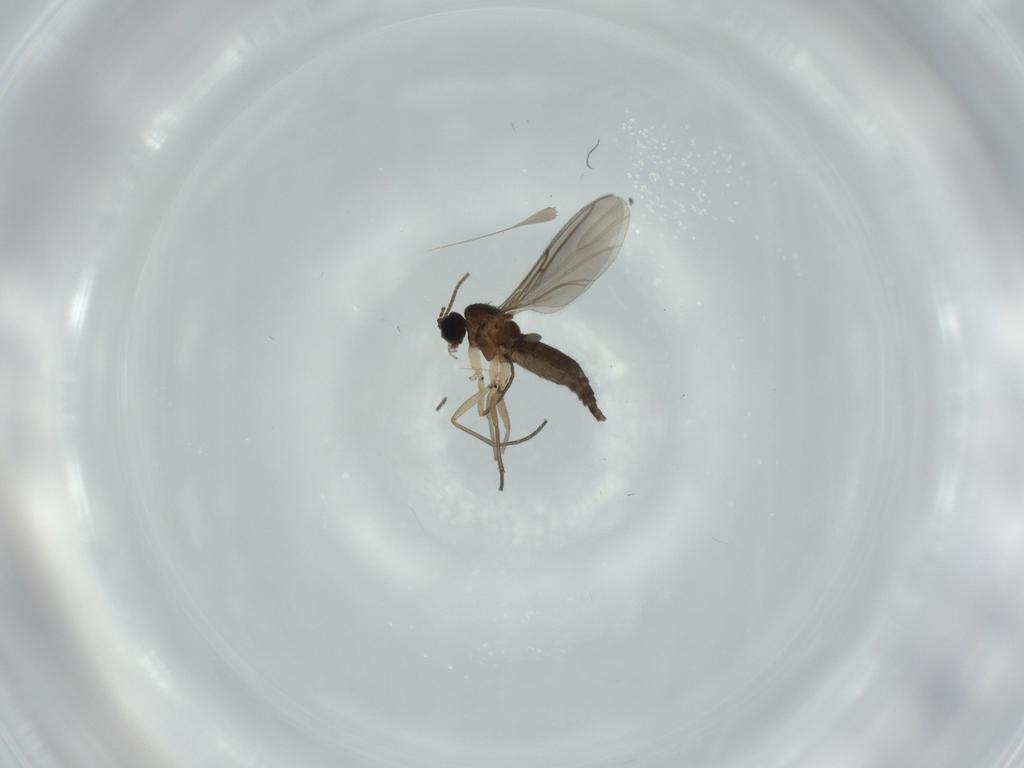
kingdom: Animalia
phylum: Arthropoda
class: Insecta
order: Diptera
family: Sciaridae
